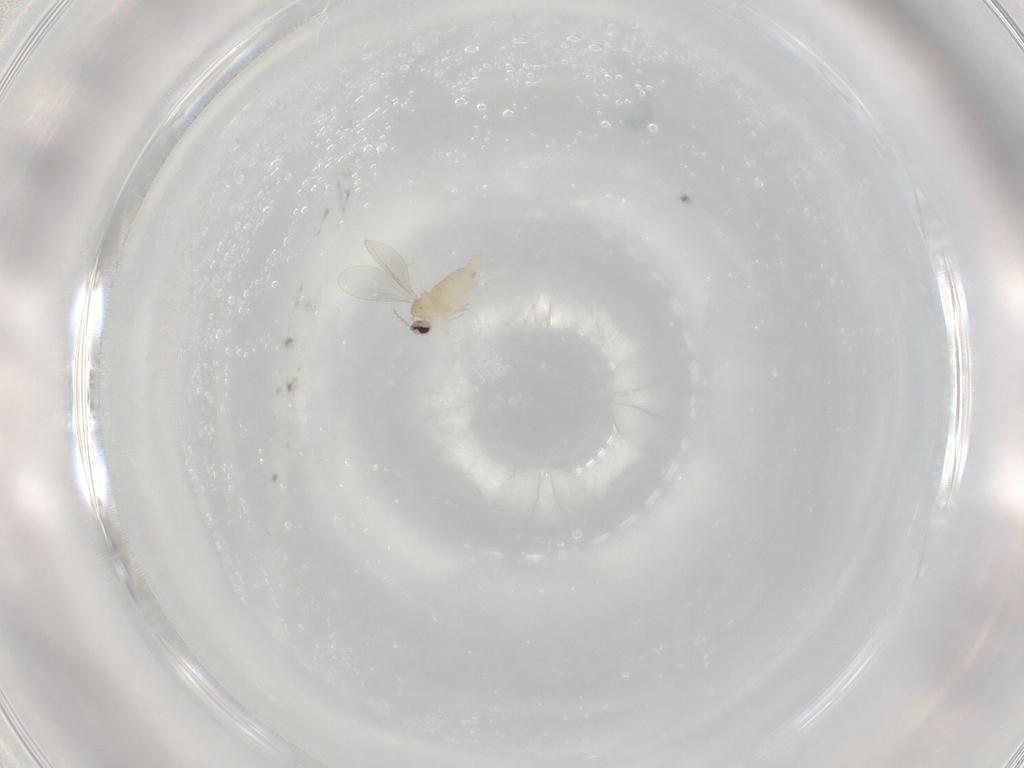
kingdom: Animalia
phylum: Arthropoda
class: Insecta
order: Diptera
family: Cecidomyiidae
